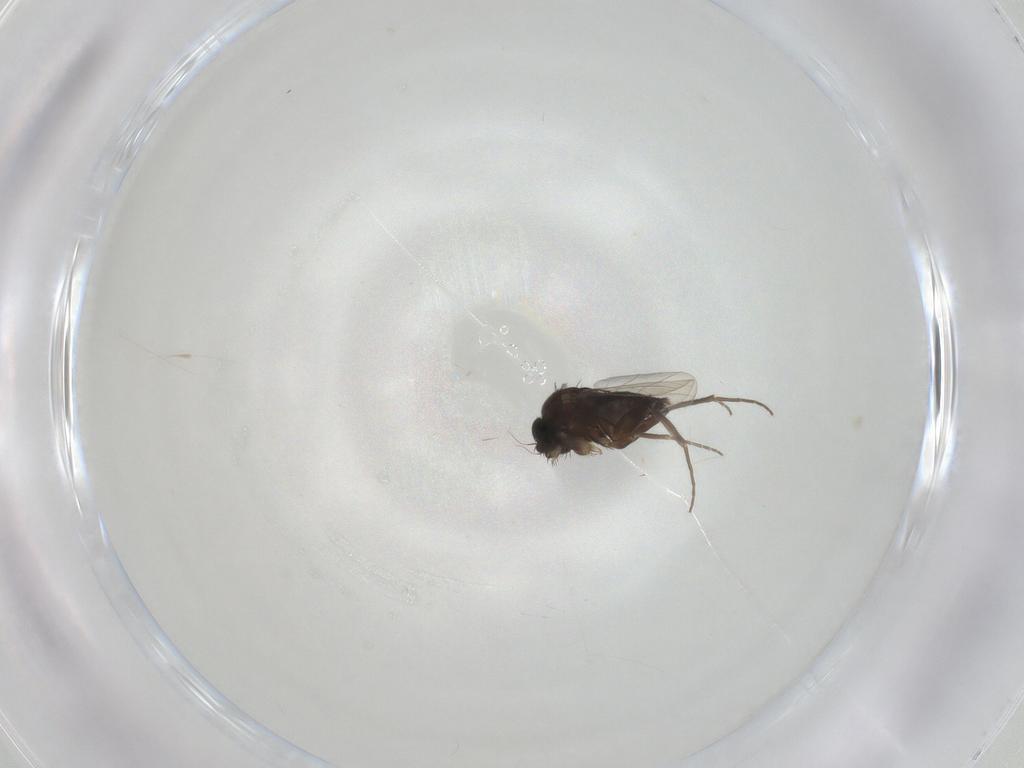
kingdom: Animalia
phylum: Arthropoda
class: Insecta
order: Diptera
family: Phoridae
